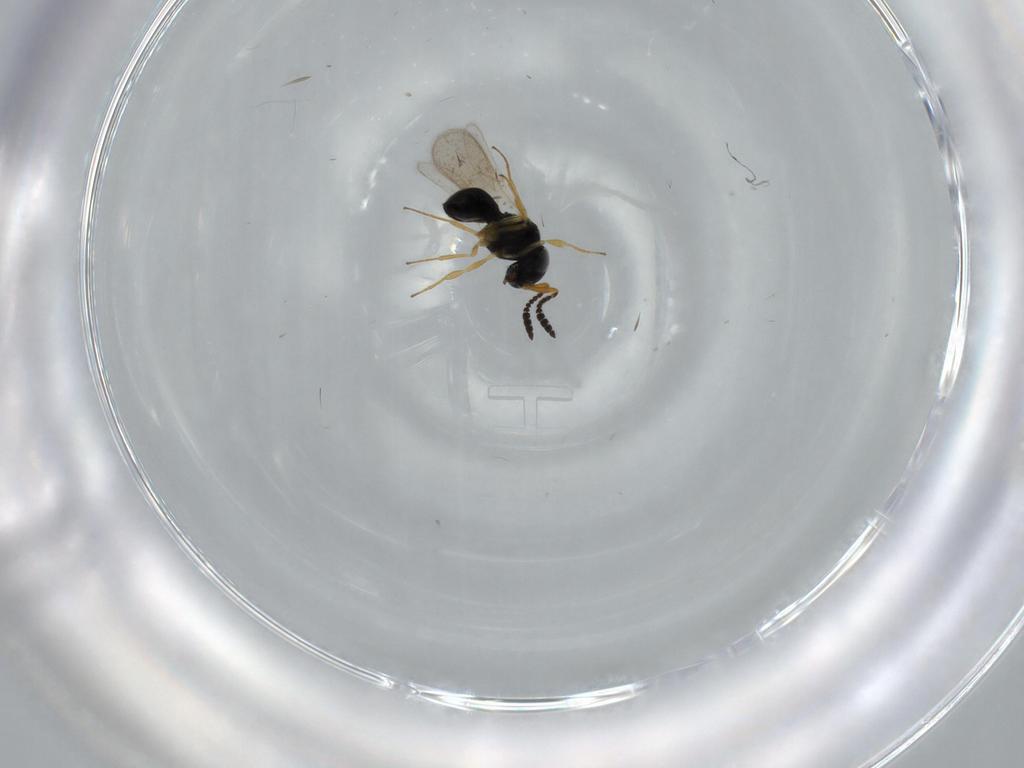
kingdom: Animalia
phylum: Arthropoda
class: Insecta
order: Hymenoptera
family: Scelionidae
